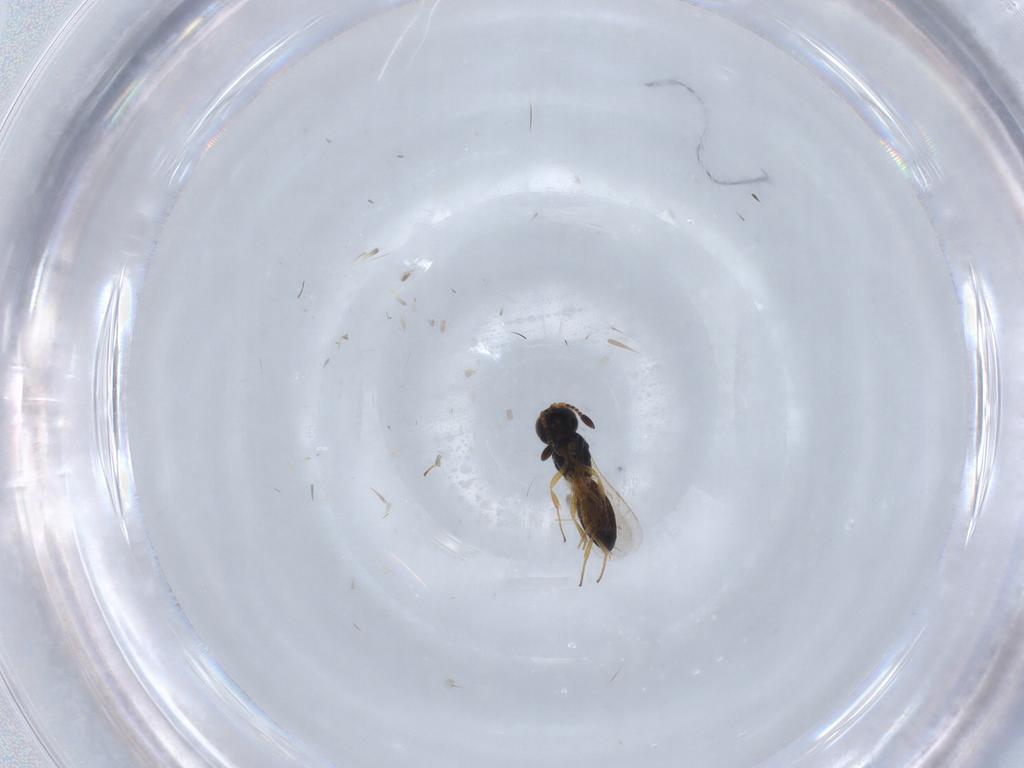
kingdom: Animalia
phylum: Arthropoda
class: Insecta
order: Hymenoptera
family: Scelionidae
